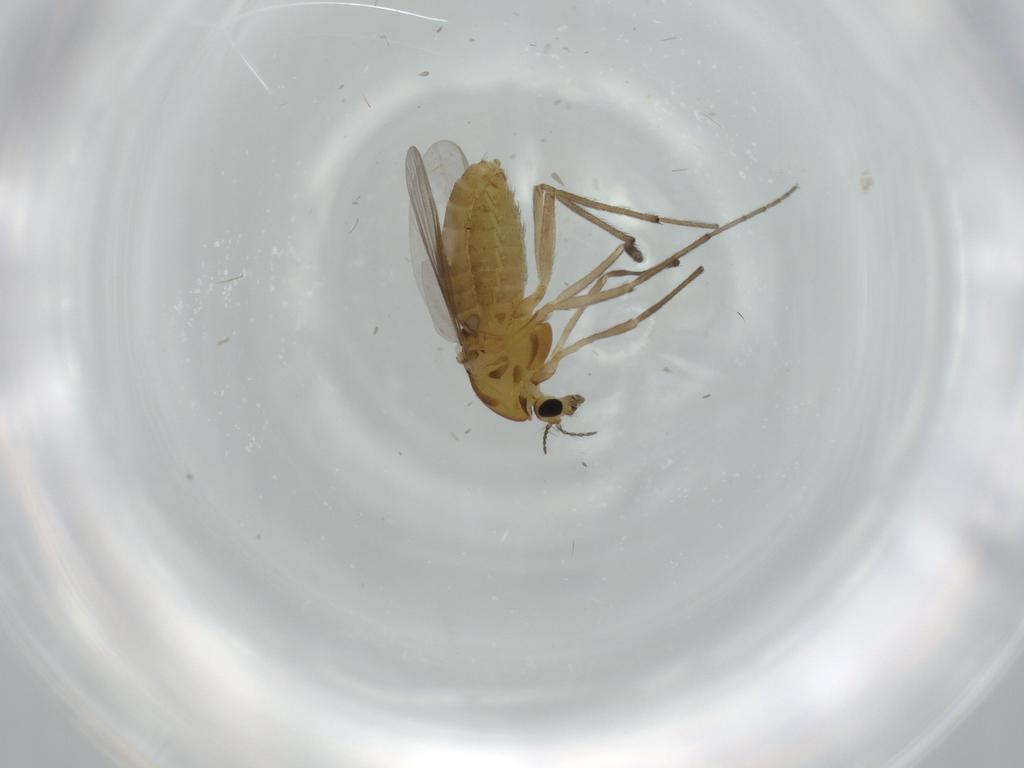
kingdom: Animalia
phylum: Arthropoda
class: Insecta
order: Diptera
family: Chironomidae
